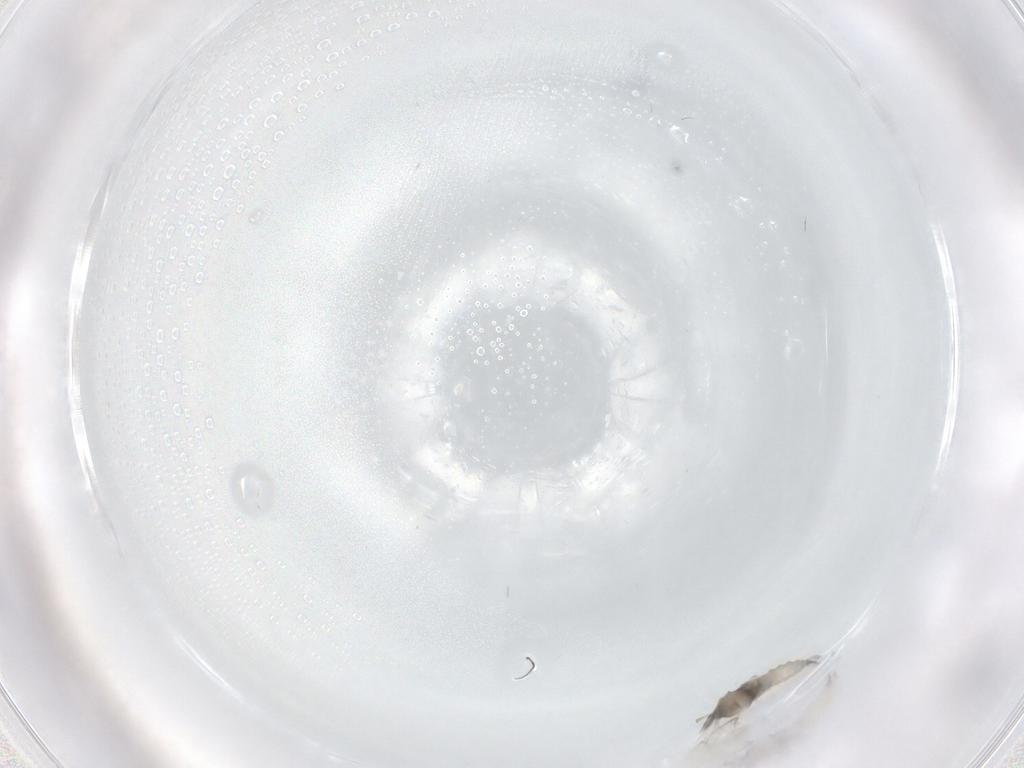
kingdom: Animalia
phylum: Arthropoda
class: Insecta
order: Diptera
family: Cecidomyiidae
